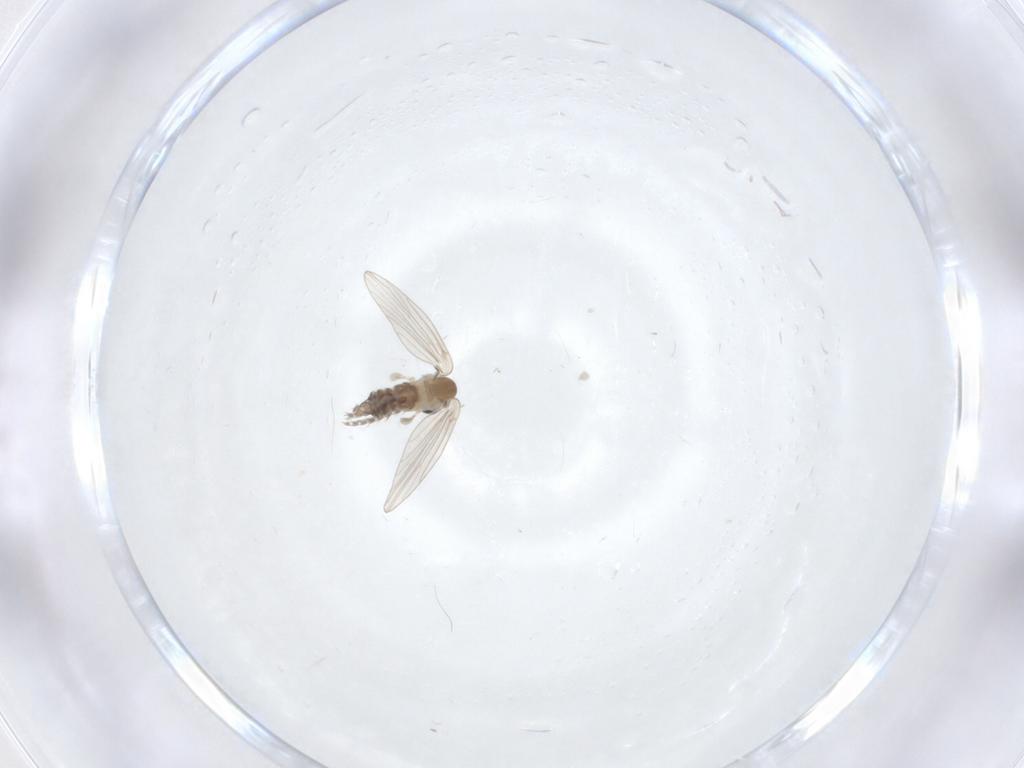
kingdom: Animalia
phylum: Arthropoda
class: Insecta
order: Diptera
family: Psychodidae
